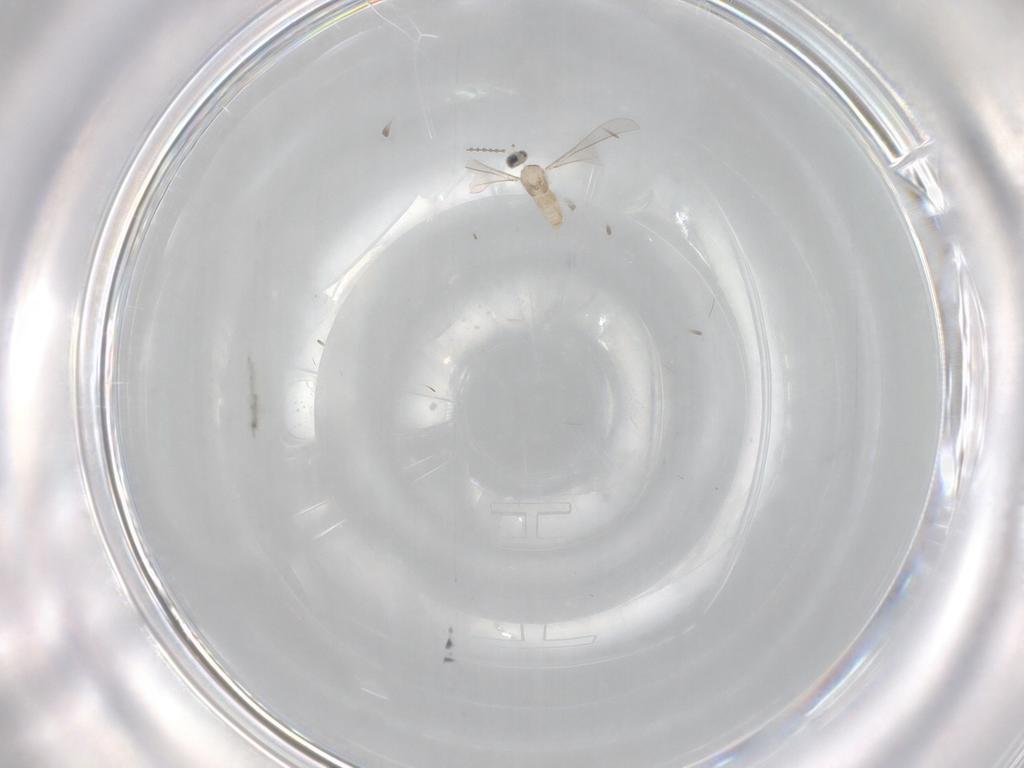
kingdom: Animalia
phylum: Arthropoda
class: Insecta
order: Diptera
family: Cecidomyiidae
